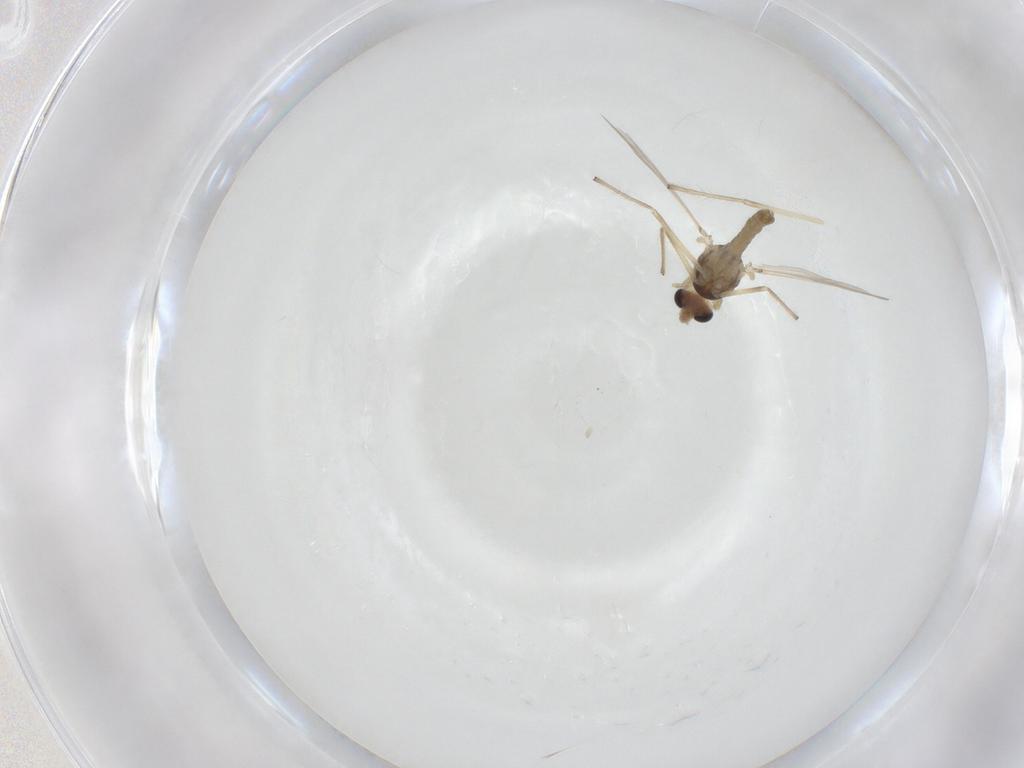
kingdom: Animalia
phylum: Arthropoda
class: Insecta
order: Diptera
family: Chironomidae
